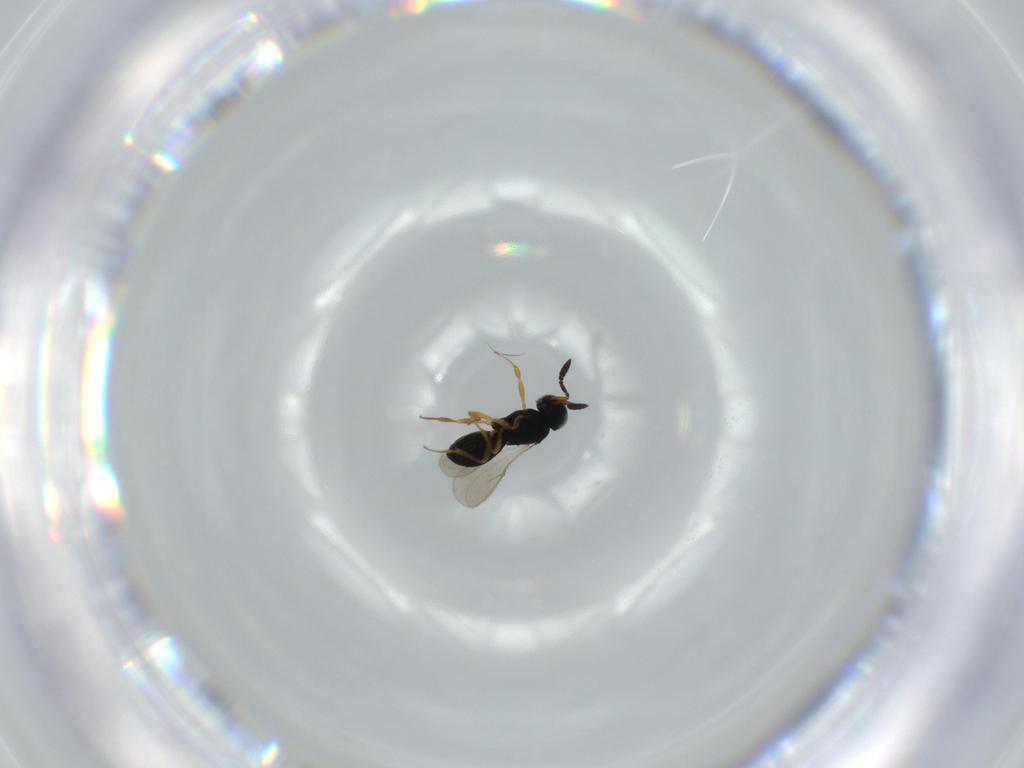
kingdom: Animalia
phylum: Arthropoda
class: Insecta
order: Hymenoptera
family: Scelionidae
